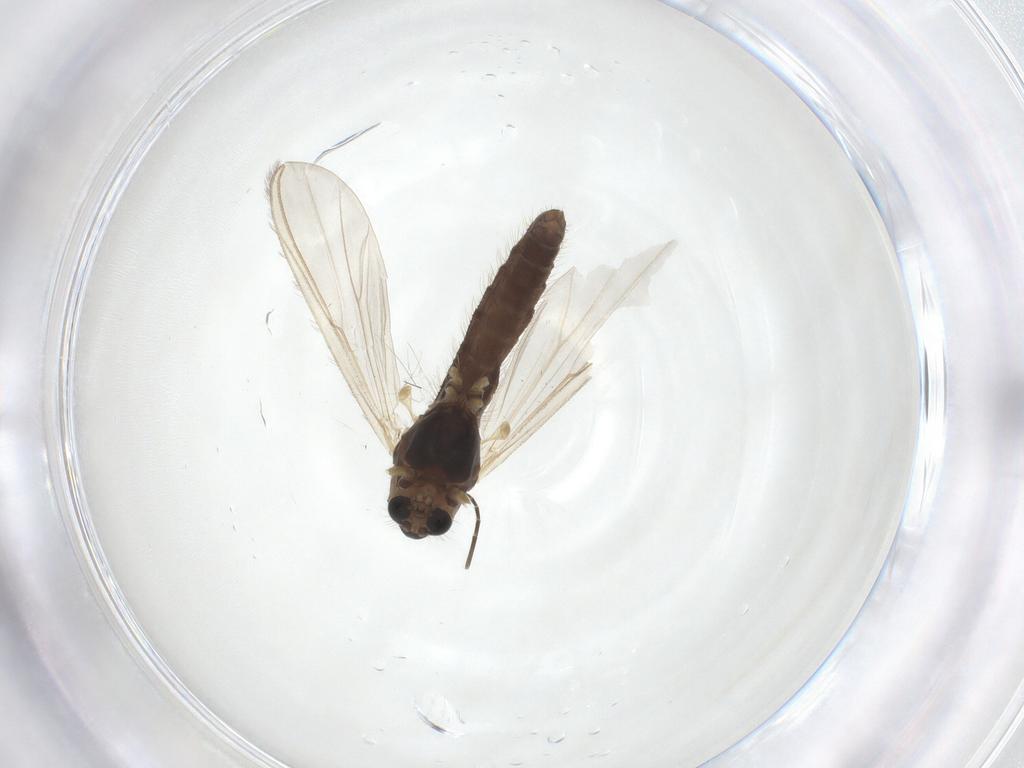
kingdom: Animalia
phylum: Arthropoda
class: Insecta
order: Diptera
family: Chironomidae
